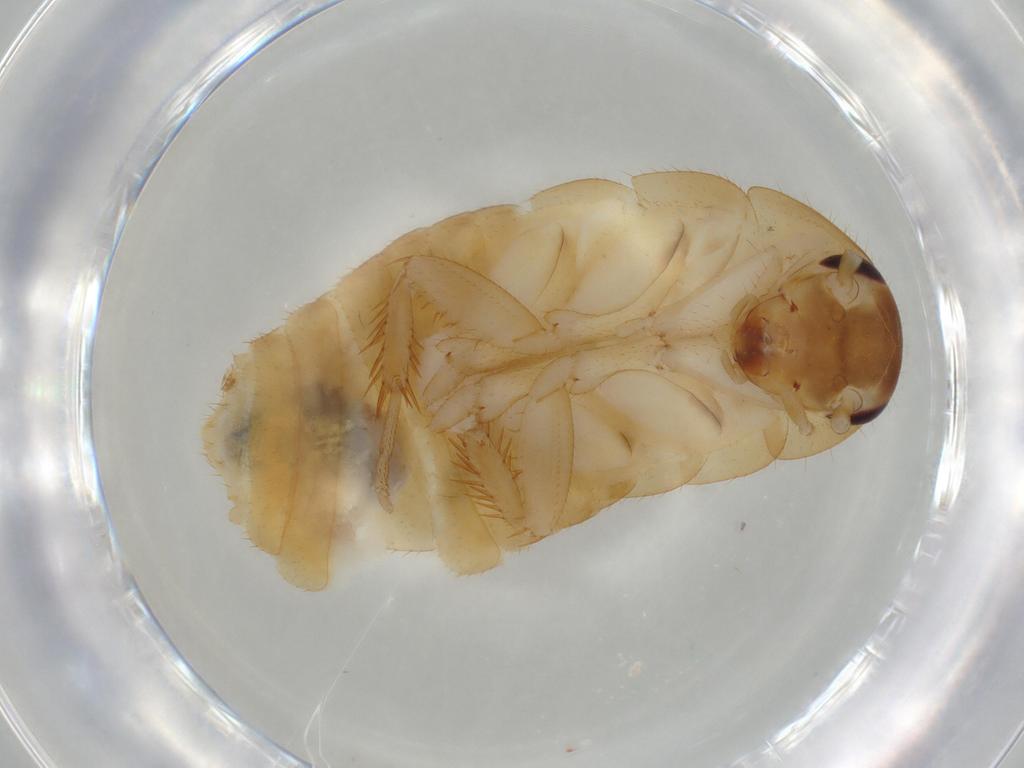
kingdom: Animalia
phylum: Arthropoda
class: Insecta
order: Blattodea
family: Ectobiidae
